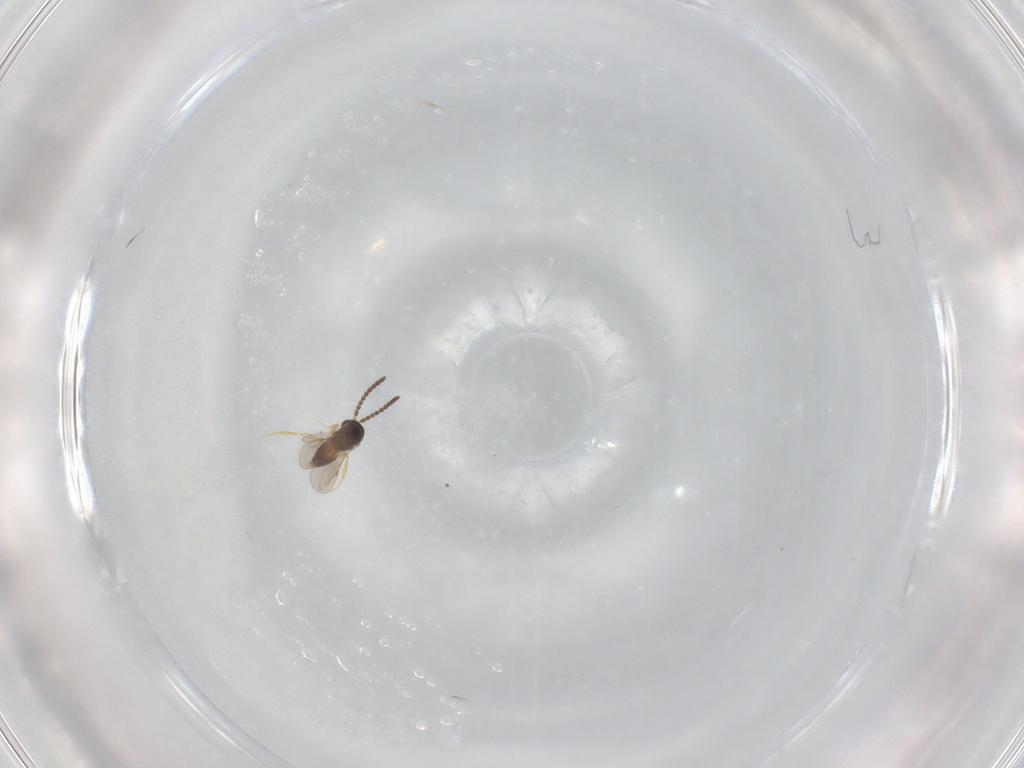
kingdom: Animalia
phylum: Arthropoda
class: Insecta
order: Hymenoptera
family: Ceraphronidae
